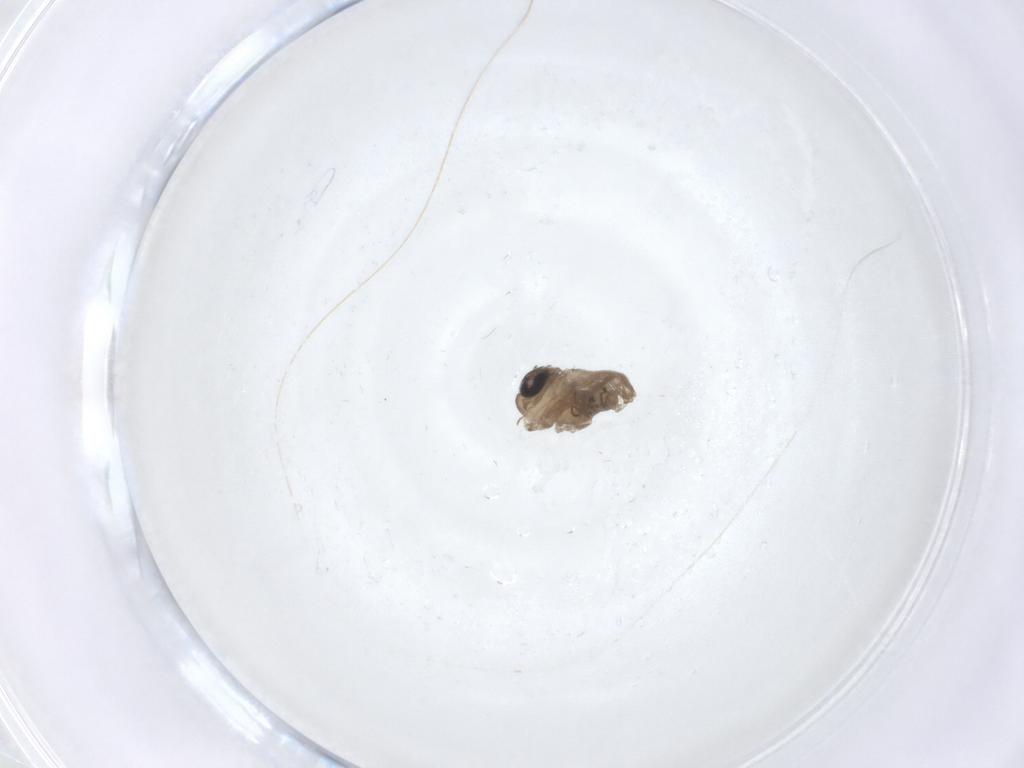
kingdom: Animalia
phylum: Arthropoda
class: Insecta
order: Diptera
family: Psychodidae
